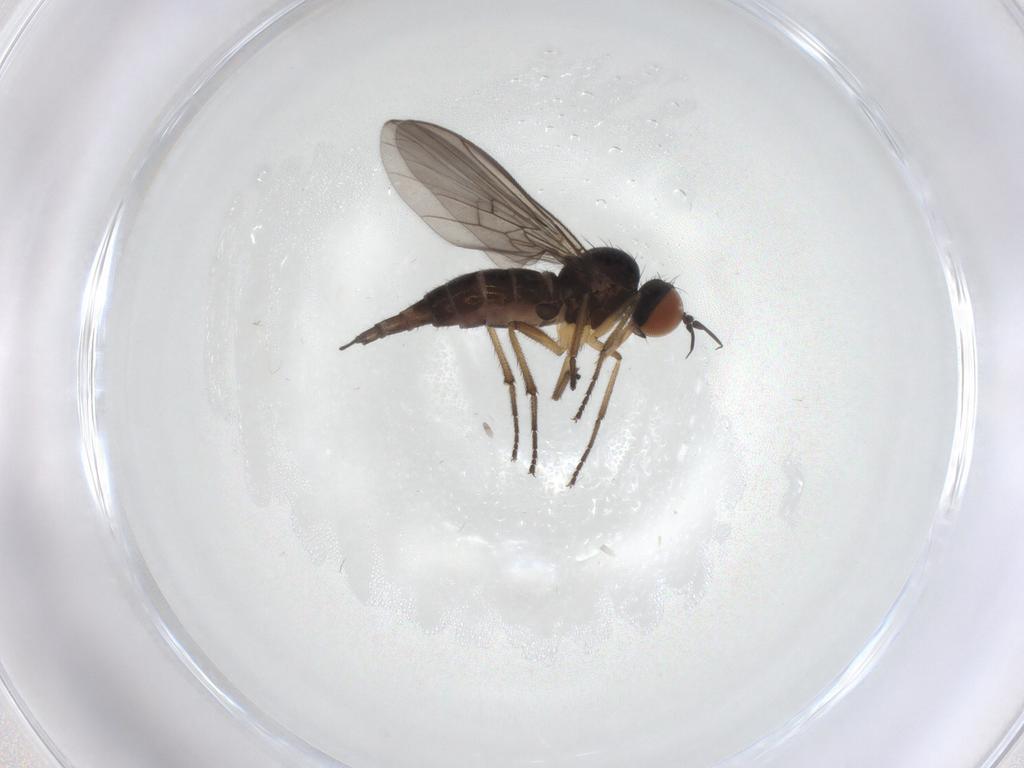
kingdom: Animalia
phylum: Arthropoda
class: Insecta
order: Diptera
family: Empididae
